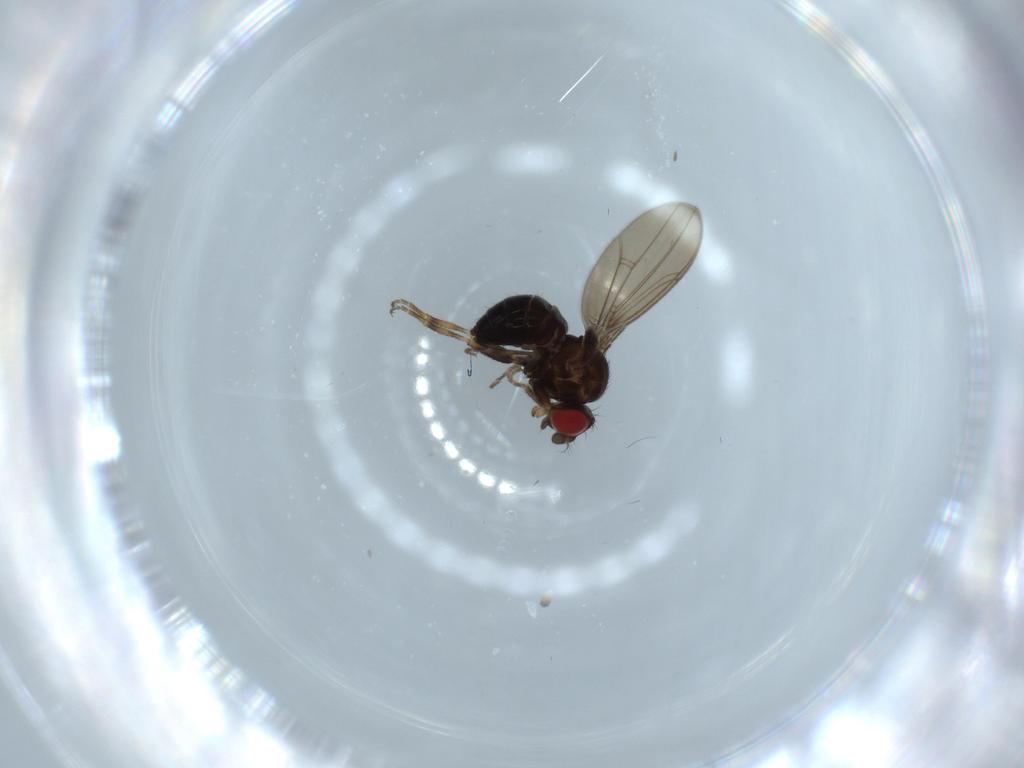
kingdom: Animalia
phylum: Arthropoda
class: Insecta
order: Diptera
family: Drosophilidae
